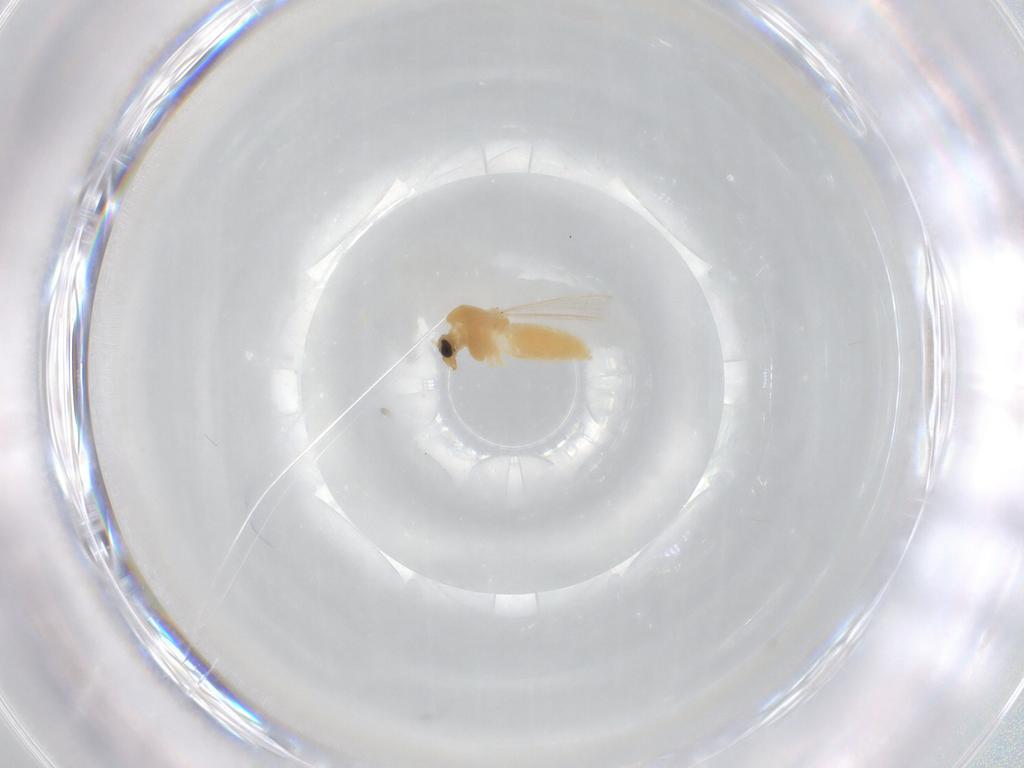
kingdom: Animalia
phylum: Arthropoda
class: Insecta
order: Diptera
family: Chironomidae
